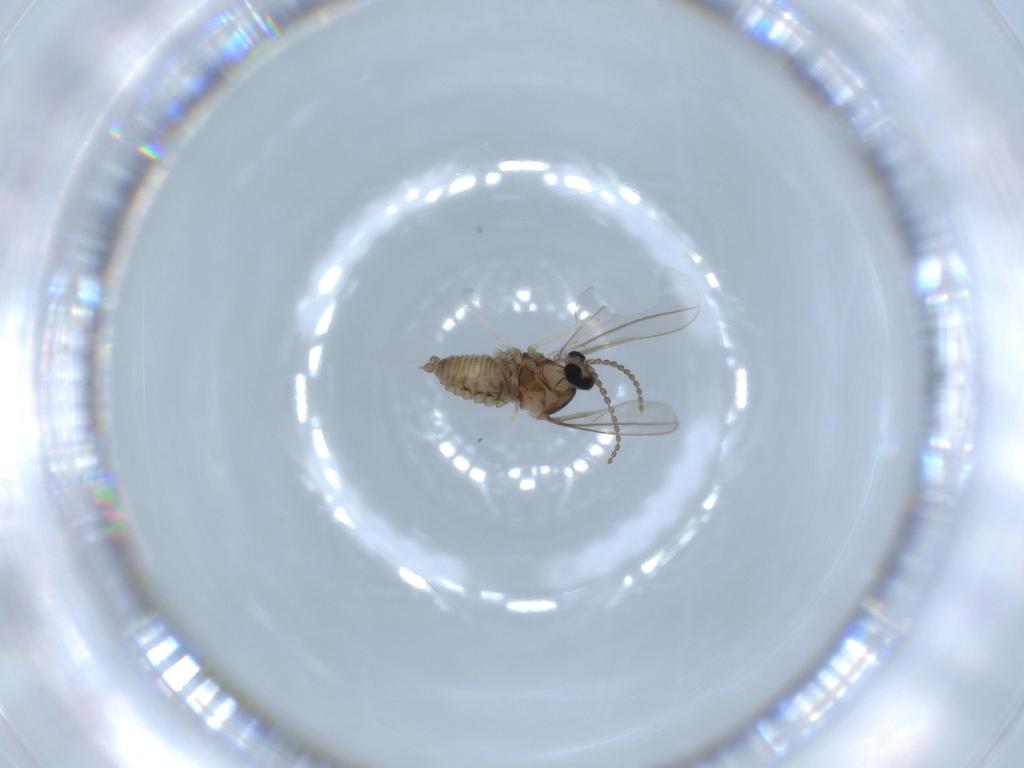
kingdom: Animalia
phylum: Arthropoda
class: Insecta
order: Diptera
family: Cecidomyiidae
